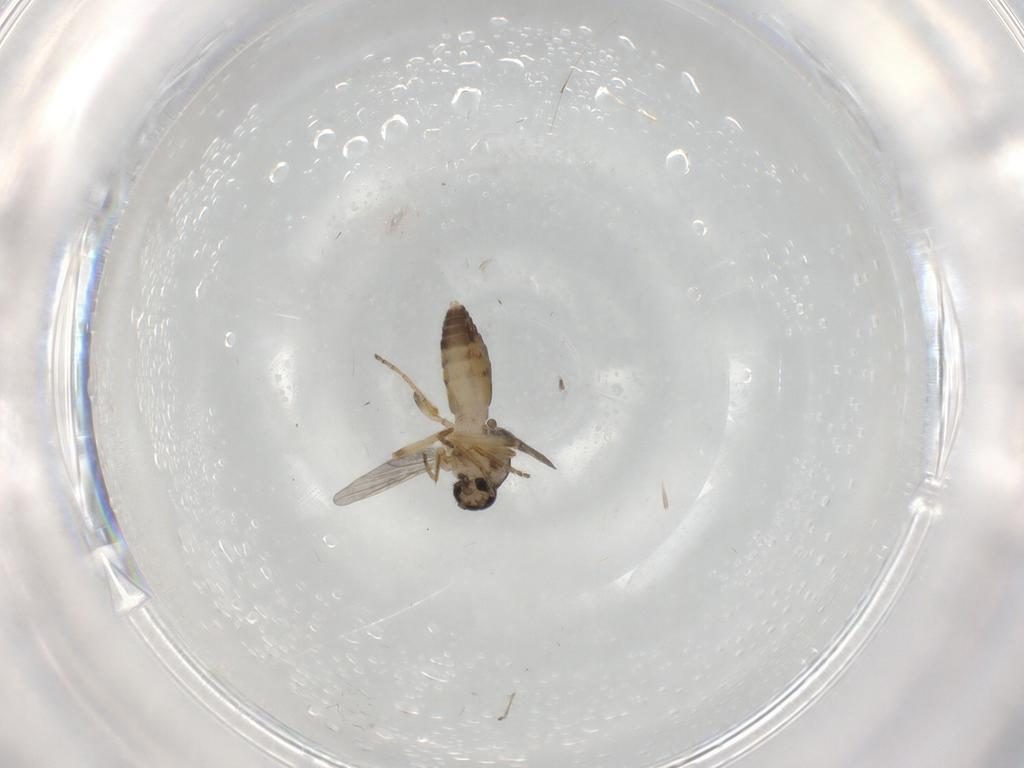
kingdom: Animalia
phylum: Arthropoda
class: Insecta
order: Diptera
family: Ceratopogonidae
